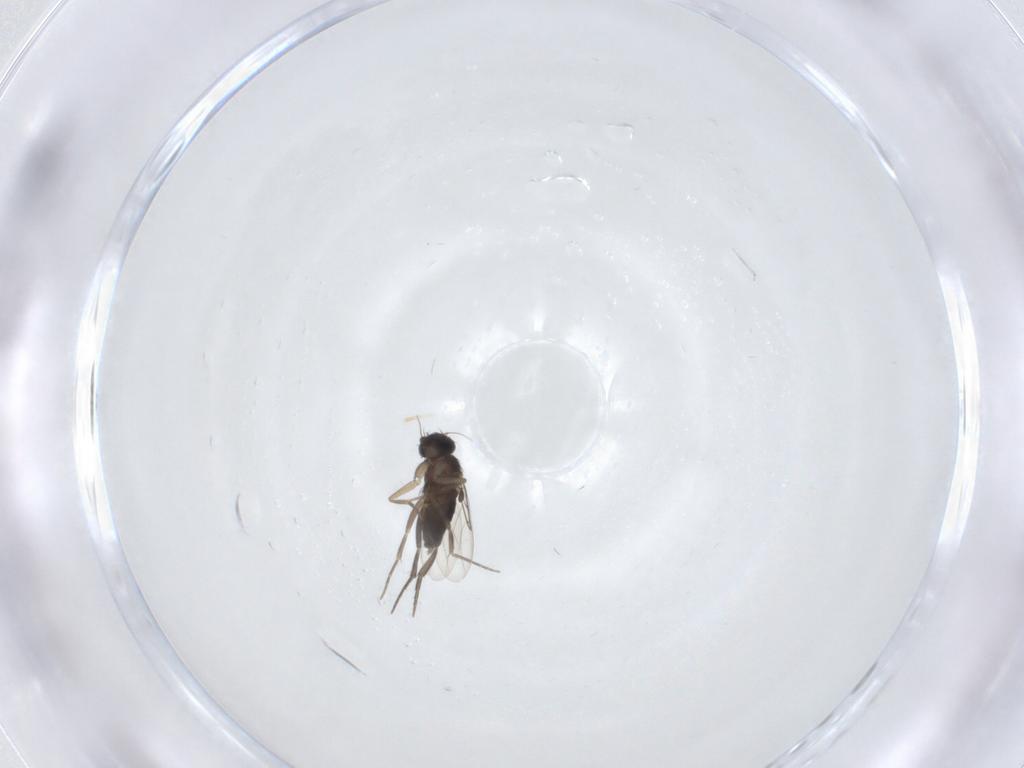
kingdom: Animalia
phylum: Arthropoda
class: Insecta
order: Diptera
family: Phoridae
